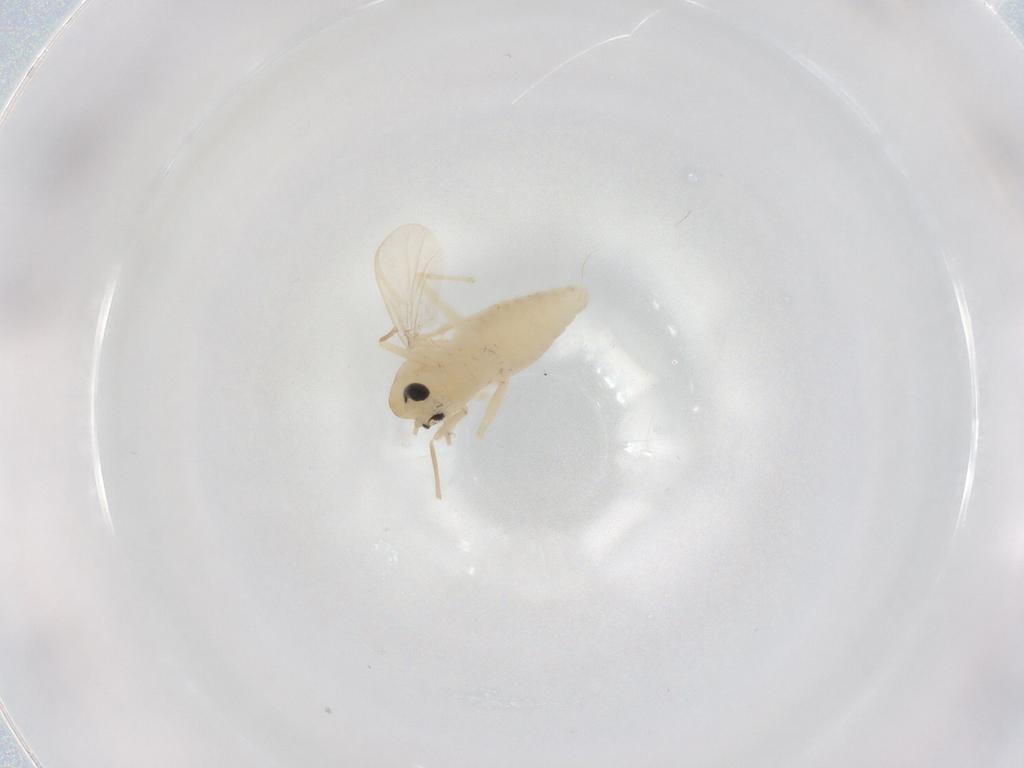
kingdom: Animalia
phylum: Arthropoda
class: Insecta
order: Diptera
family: Chironomidae
